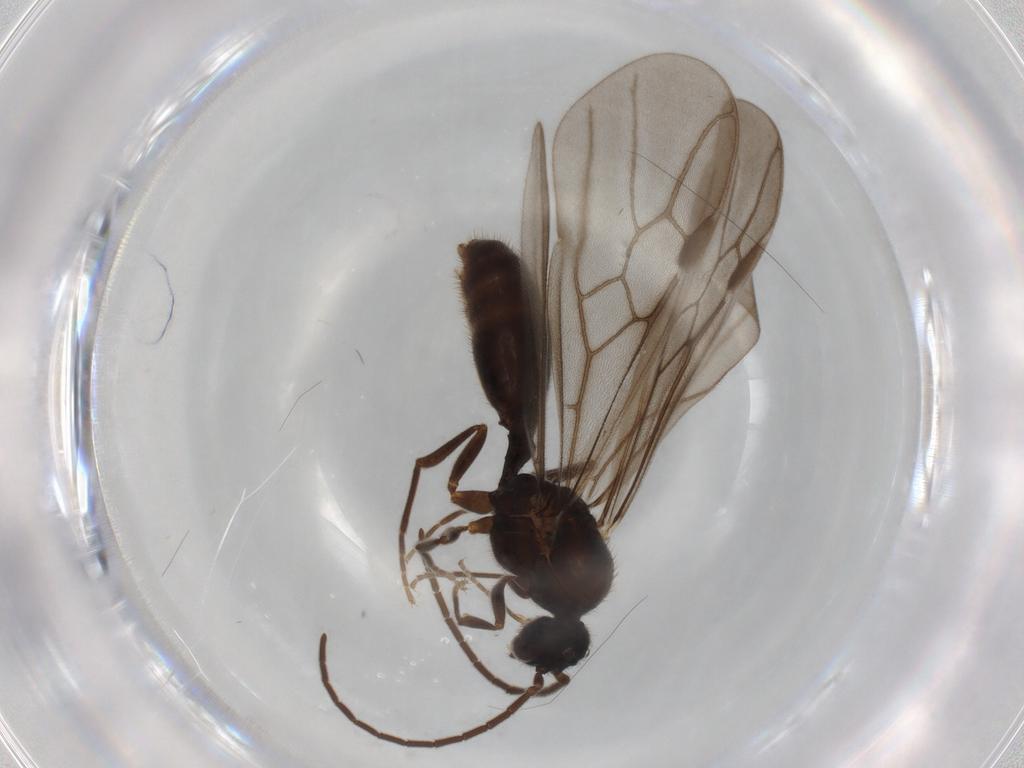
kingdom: Animalia
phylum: Arthropoda
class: Insecta
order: Hymenoptera
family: Formicidae
